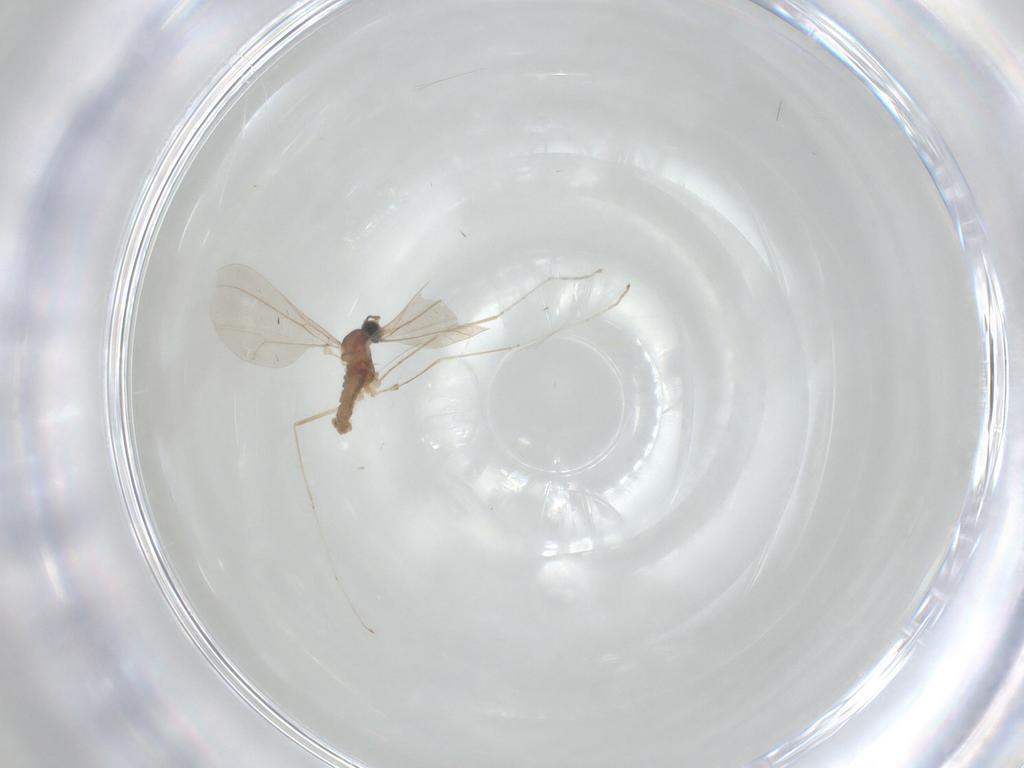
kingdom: Animalia
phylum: Arthropoda
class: Insecta
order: Diptera
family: Cecidomyiidae
